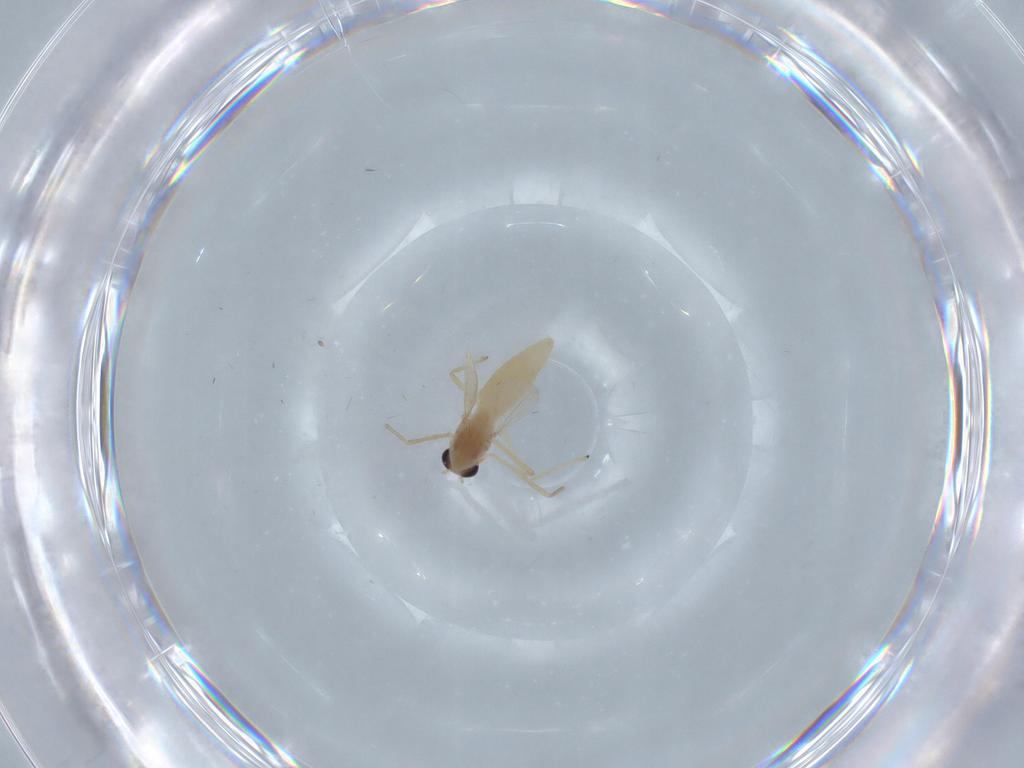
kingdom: Animalia
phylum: Arthropoda
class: Insecta
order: Diptera
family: Chironomidae
